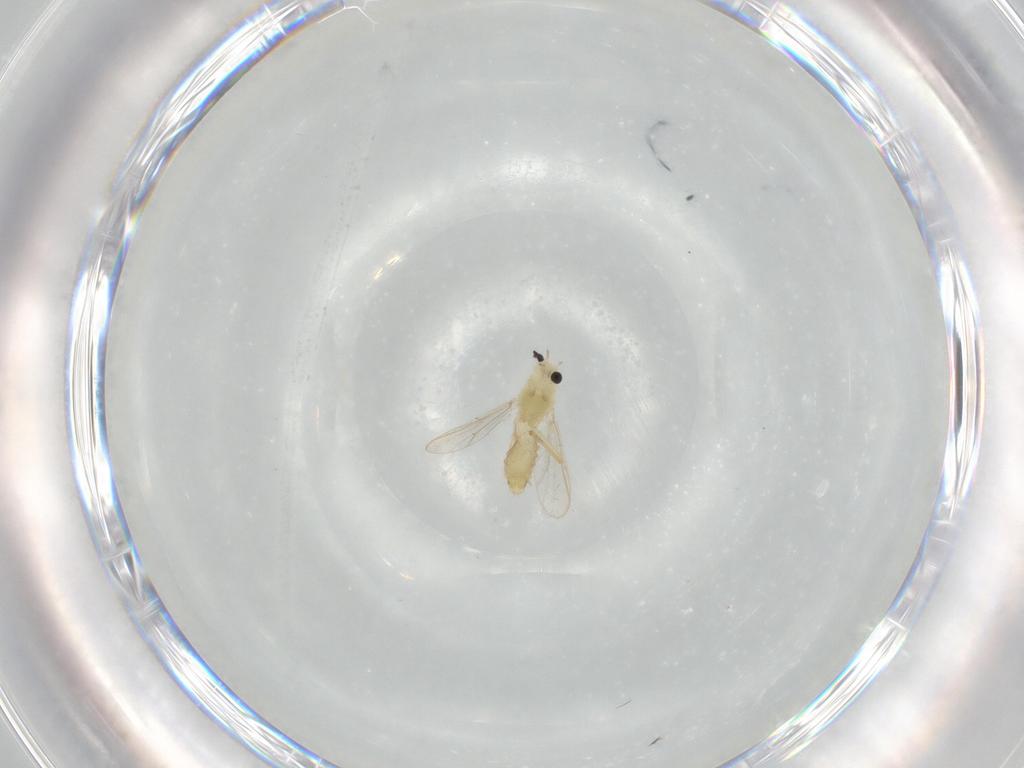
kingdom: Animalia
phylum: Arthropoda
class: Insecta
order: Diptera
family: Chironomidae
